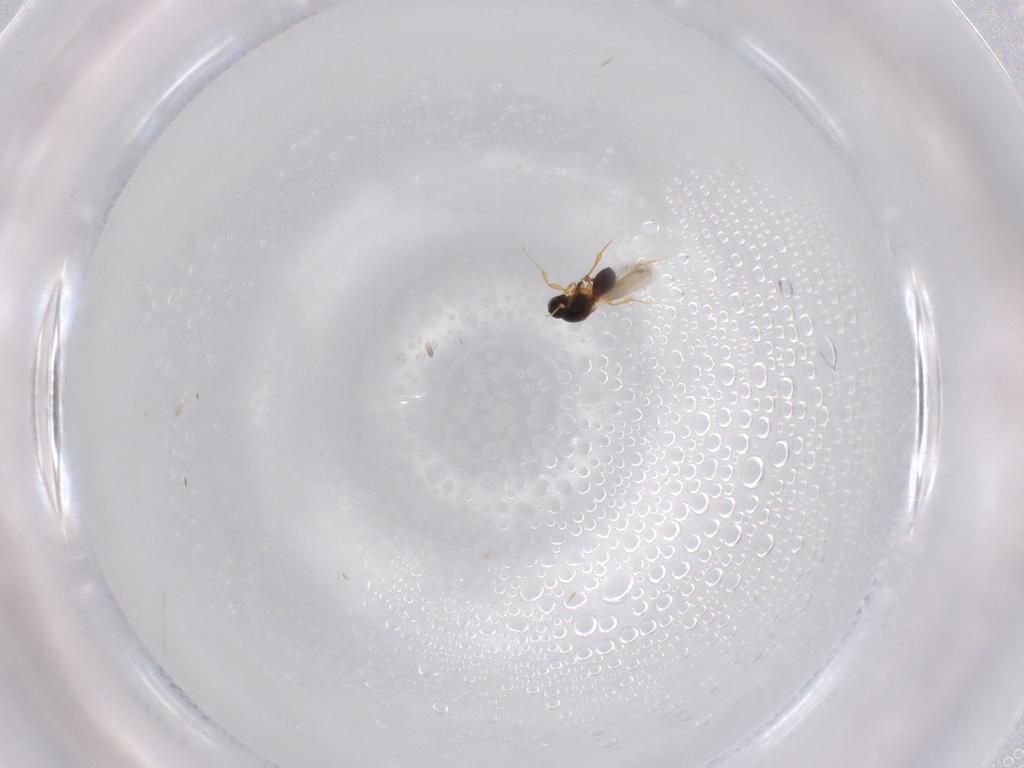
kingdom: Animalia
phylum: Arthropoda
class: Insecta
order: Hymenoptera
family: Platygastridae
